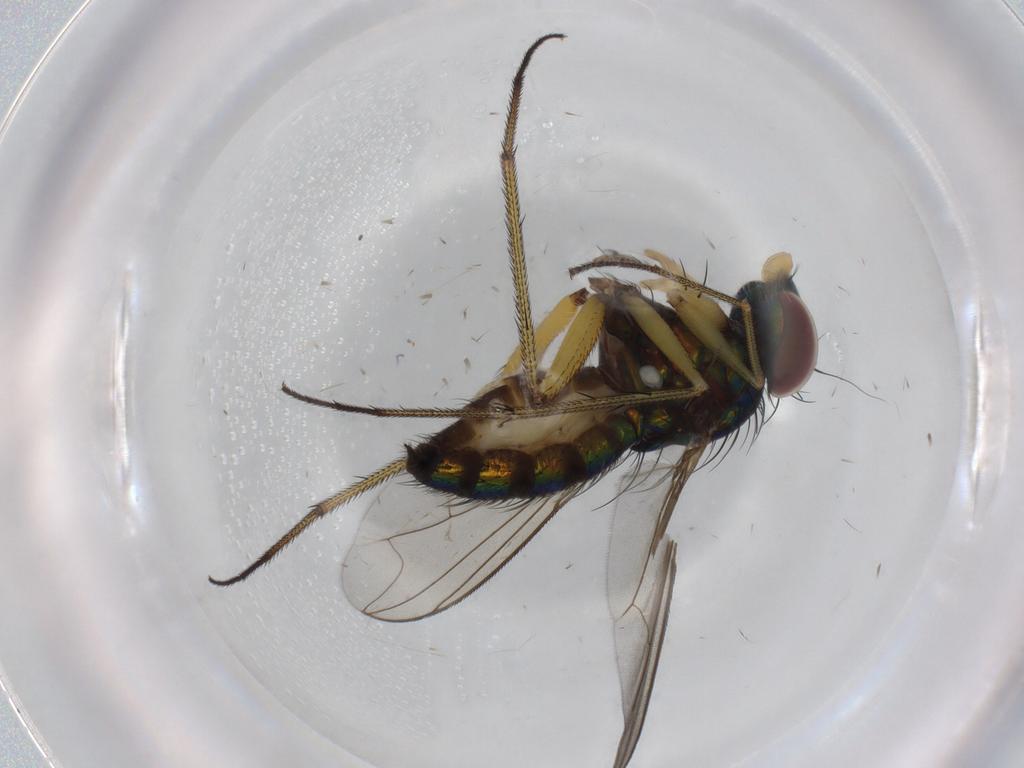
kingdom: Animalia
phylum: Arthropoda
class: Insecta
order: Diptera
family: Dolichopodidae
